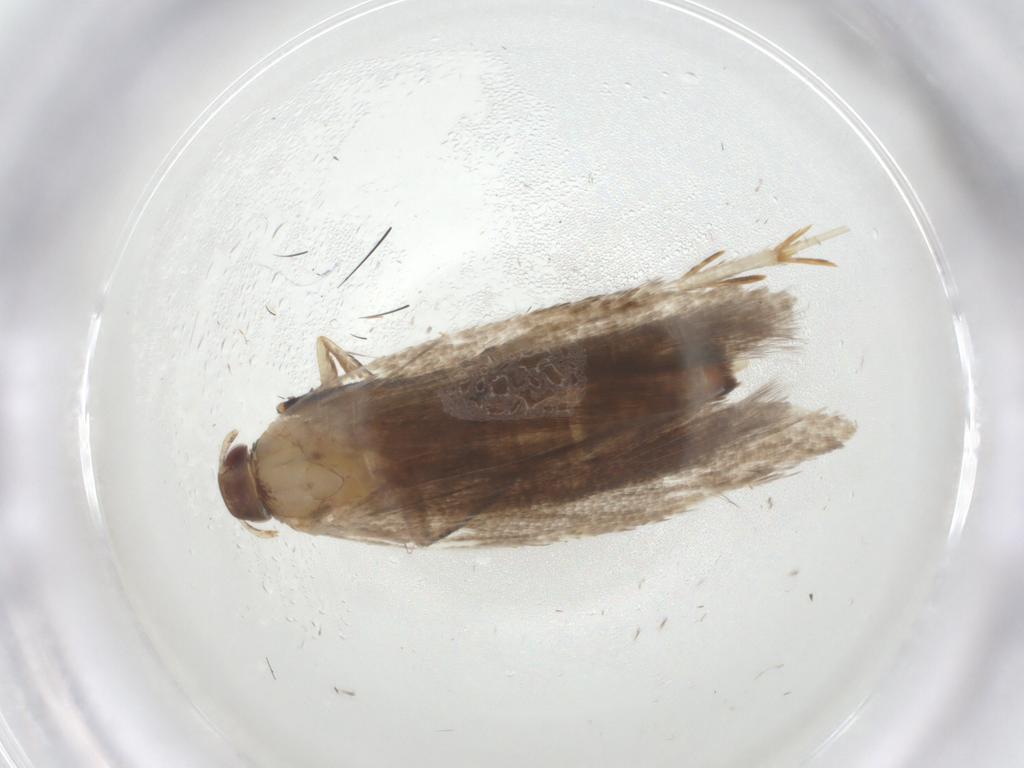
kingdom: Animalia
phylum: Arthropoda
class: Insecta
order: Lepidoptera
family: Gelechiidae
